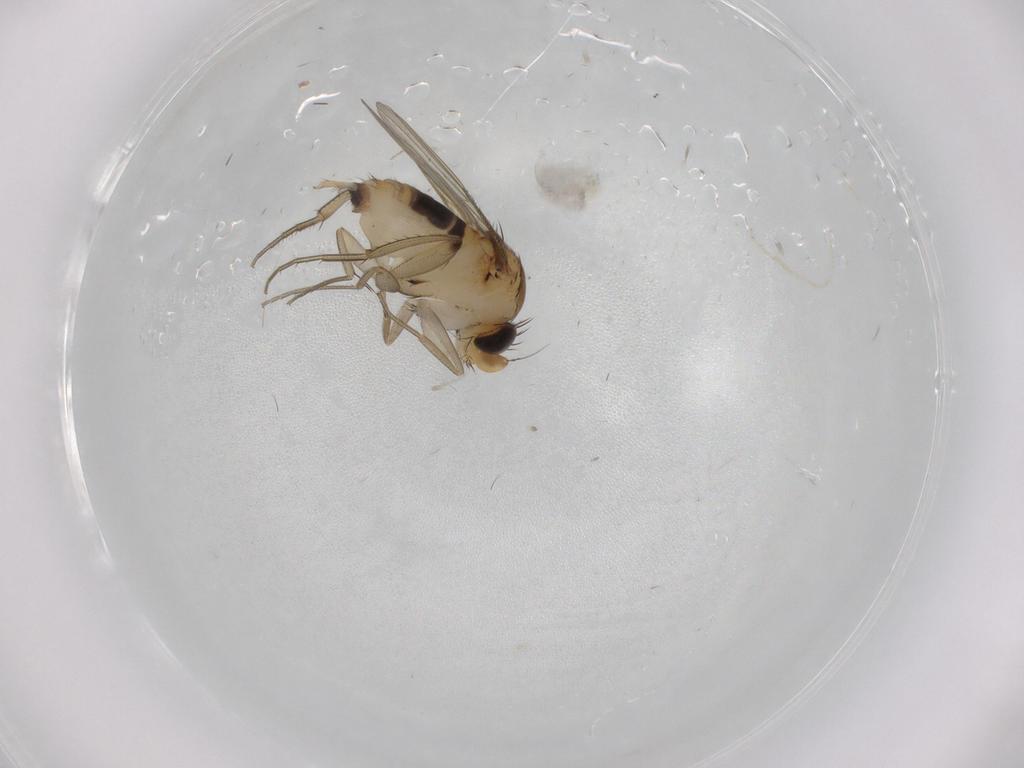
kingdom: Animalia
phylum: Arthropoda
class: Insecta
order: Diptera
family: Phoridae
